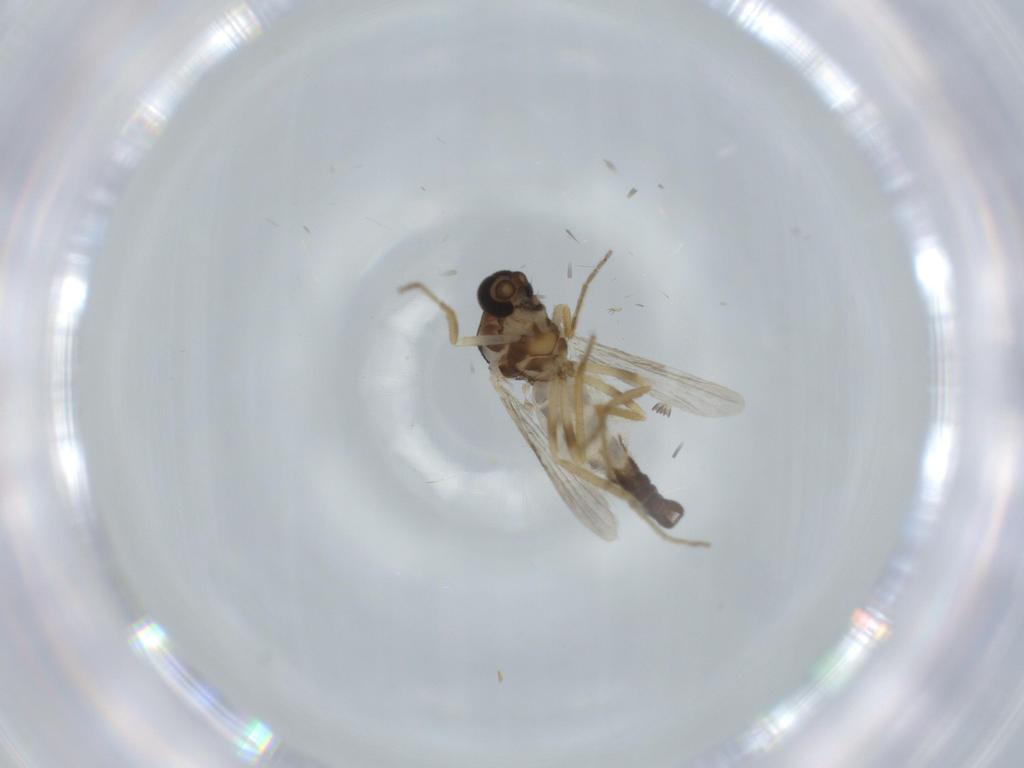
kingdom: Animalia
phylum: Arthropoda
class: Insecta
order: Diptera
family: Ceratopogonidae
